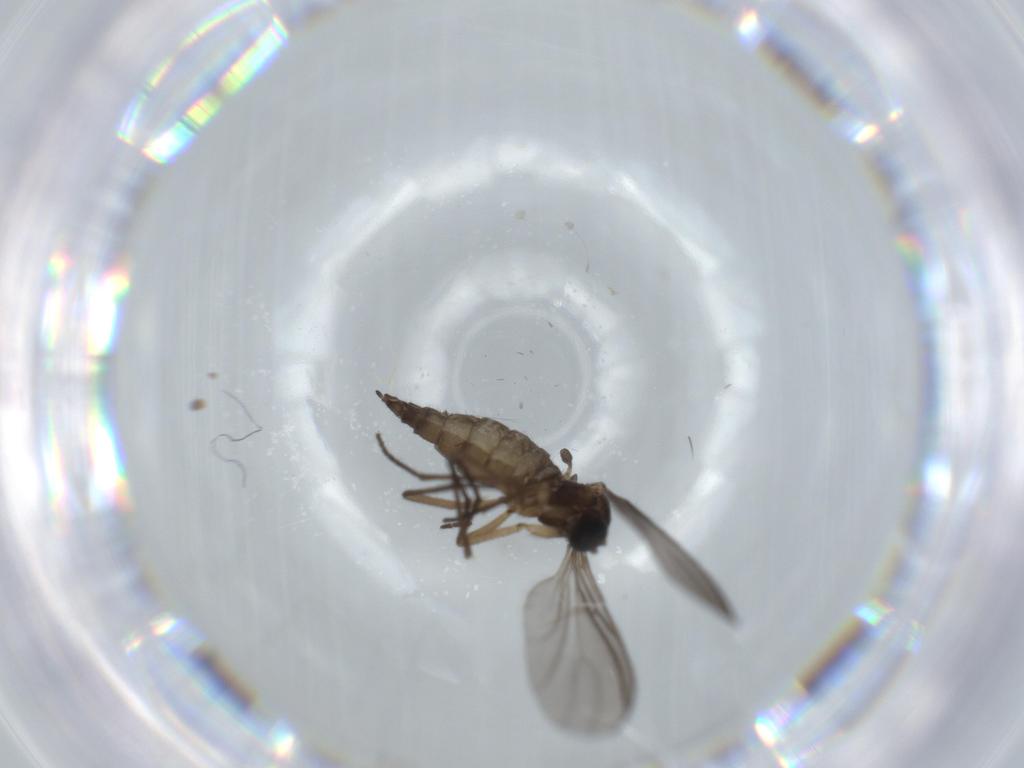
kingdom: Animalia
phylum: Arthropoda
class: Insecta
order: Diptera
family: Sciaridae
